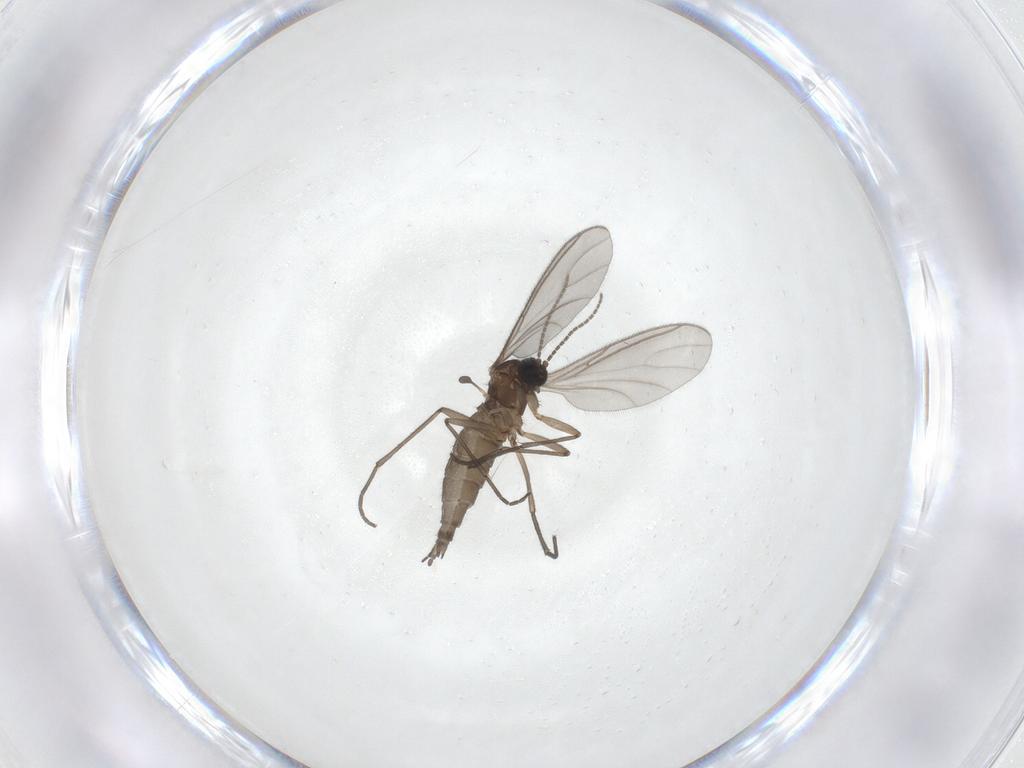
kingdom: Animalia
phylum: Arthropoda
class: Insecta
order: Diptera
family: Sciaridae
